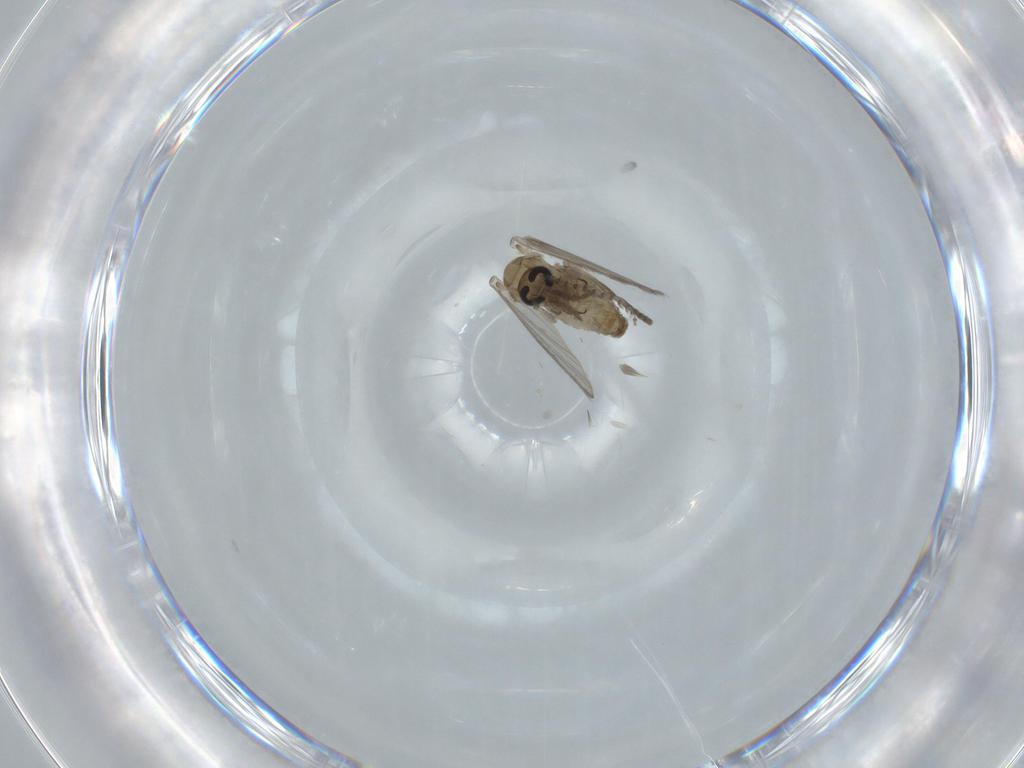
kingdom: Animalia
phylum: Arthropoda
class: Insecta
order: Diptera
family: Psychodidae
